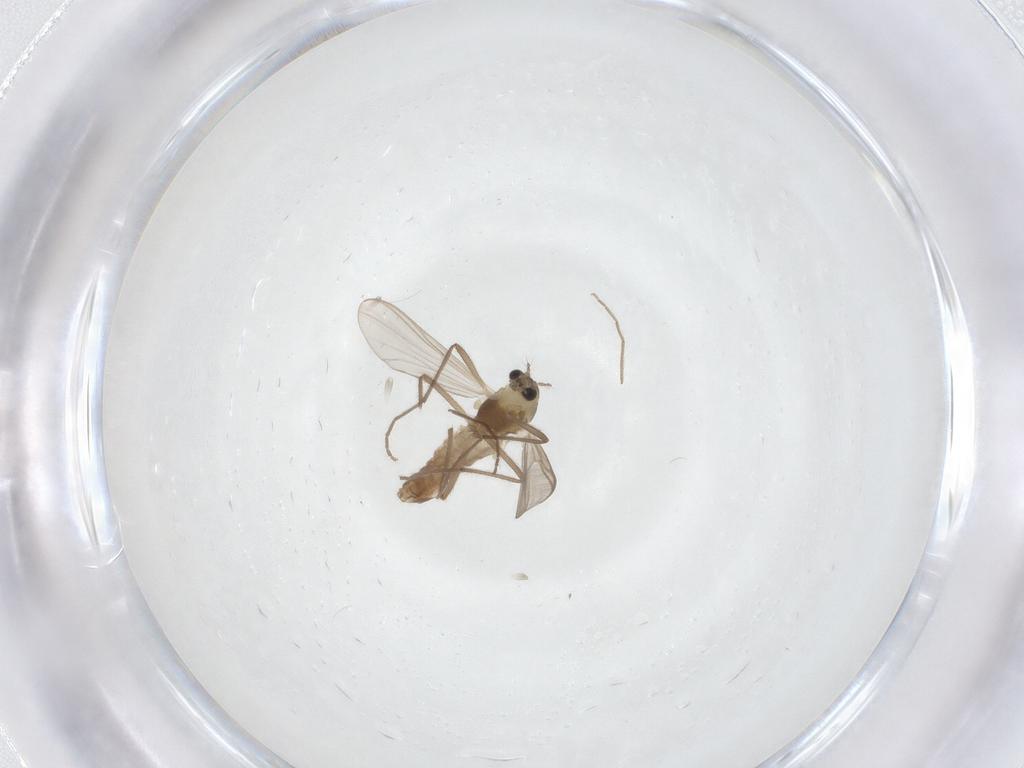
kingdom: Animalia
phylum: Arthropoda
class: Insecta
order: Diptera
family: Chironomidae
